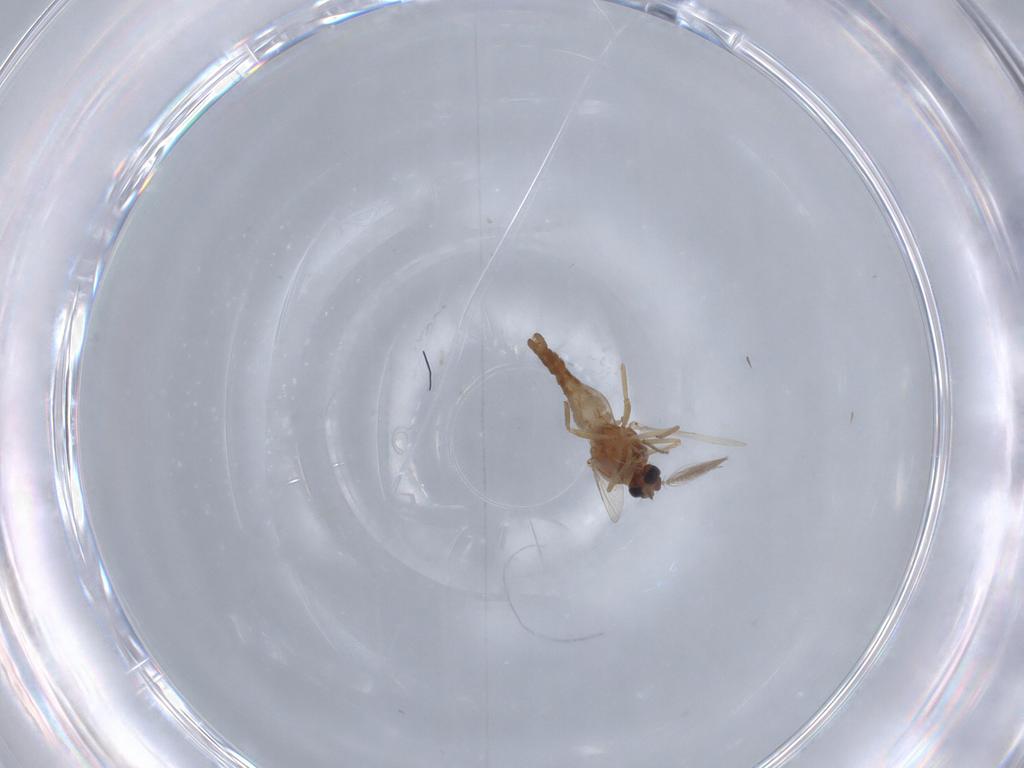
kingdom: Animalia
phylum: Arthropoda
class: Insecta
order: Diptera
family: Ceratopogonidae
